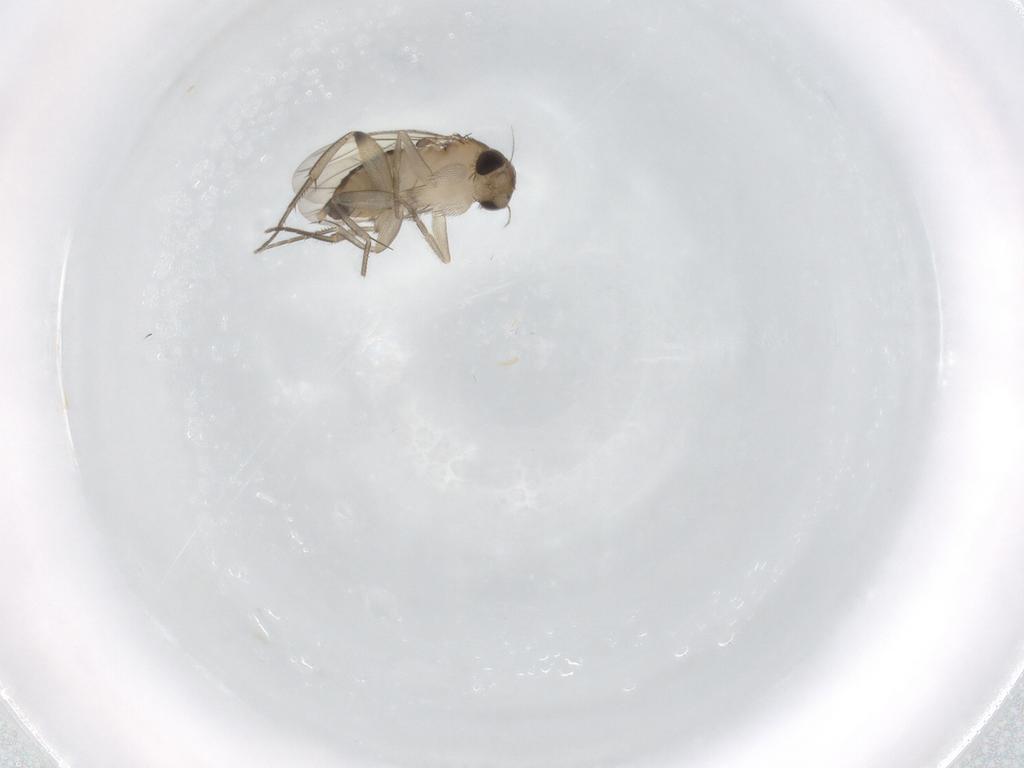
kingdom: Animalia
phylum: Arthropoda
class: Insecta
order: Diptera
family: Phoridae
